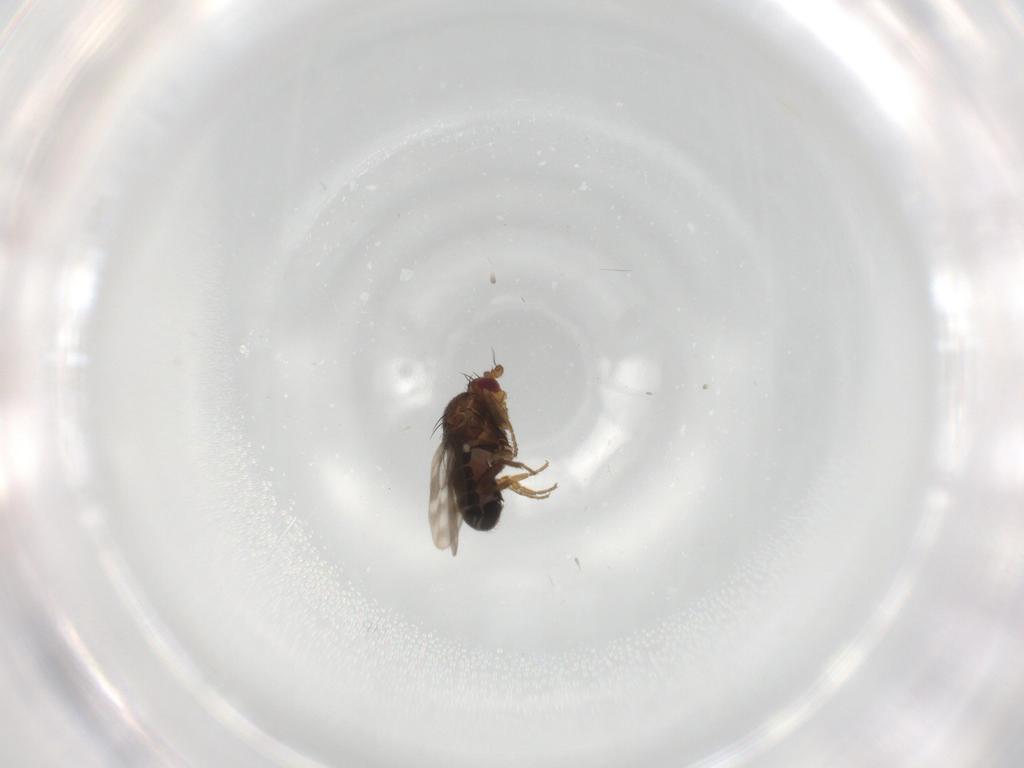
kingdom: Animalia
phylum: Arthropoda
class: Insecta
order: Diptera
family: Sphaeroceridae
